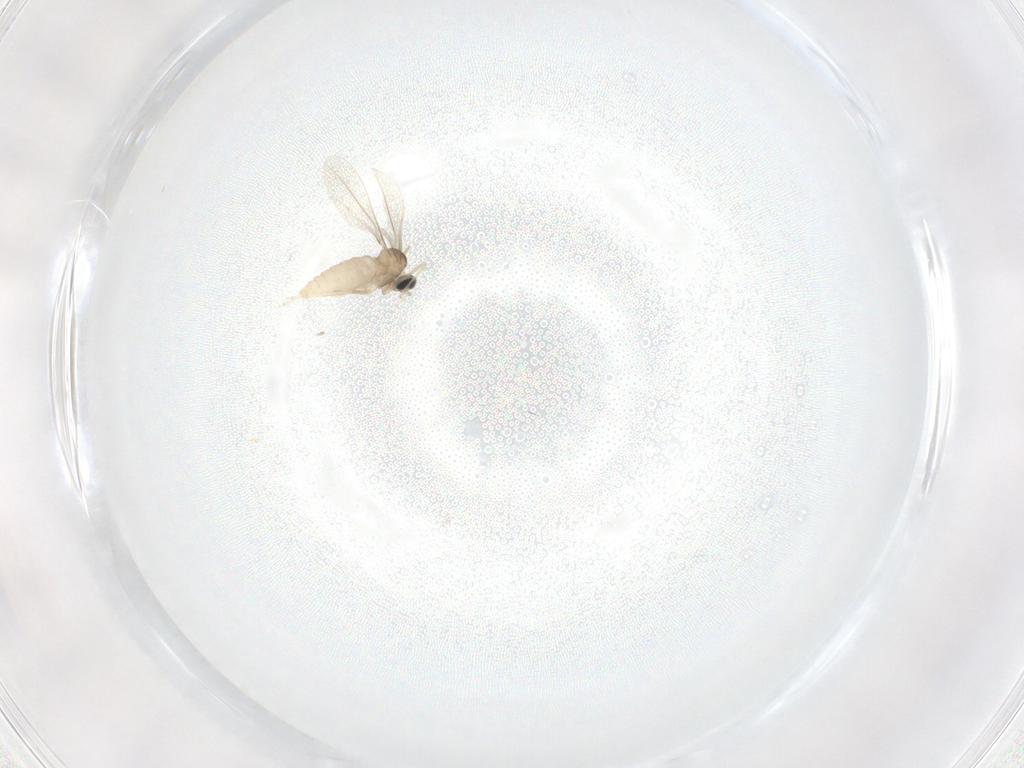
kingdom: Animalia
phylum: Arthropoda
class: Insecta
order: Diptera
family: Cecidomyiidae
